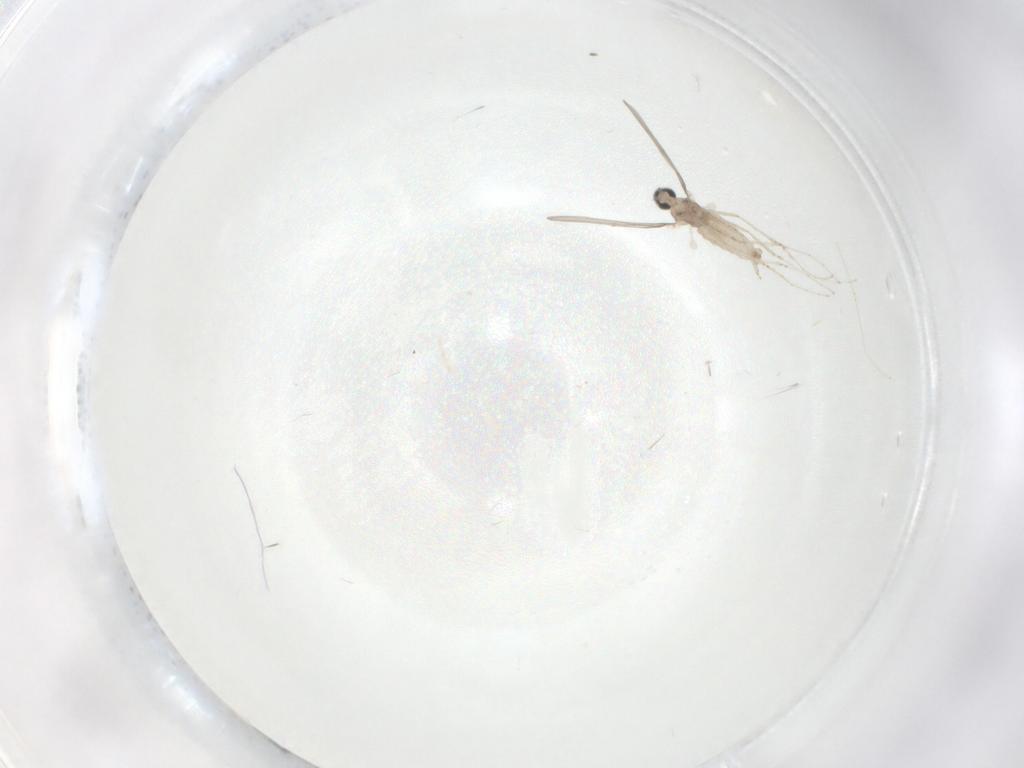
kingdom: Animalia
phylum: Arthropoda
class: Insecta
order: Diptera
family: Cecidomyiidae
